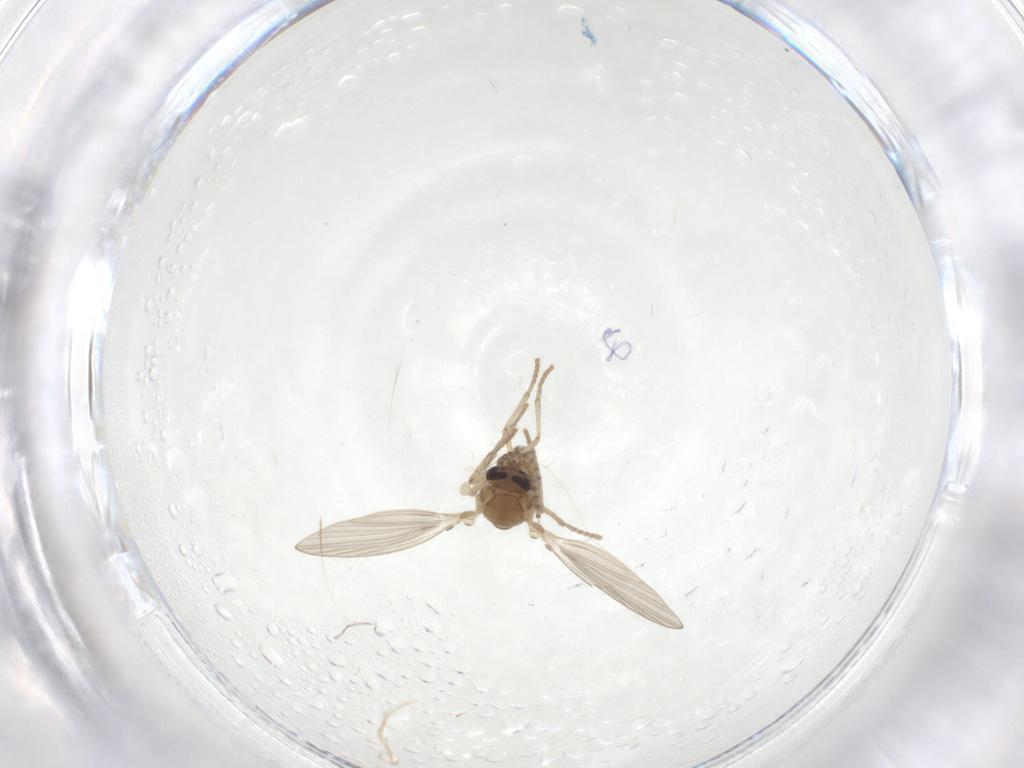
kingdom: Animalia
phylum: Arthropoda
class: Insecta
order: Diptera
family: Psychodidae
